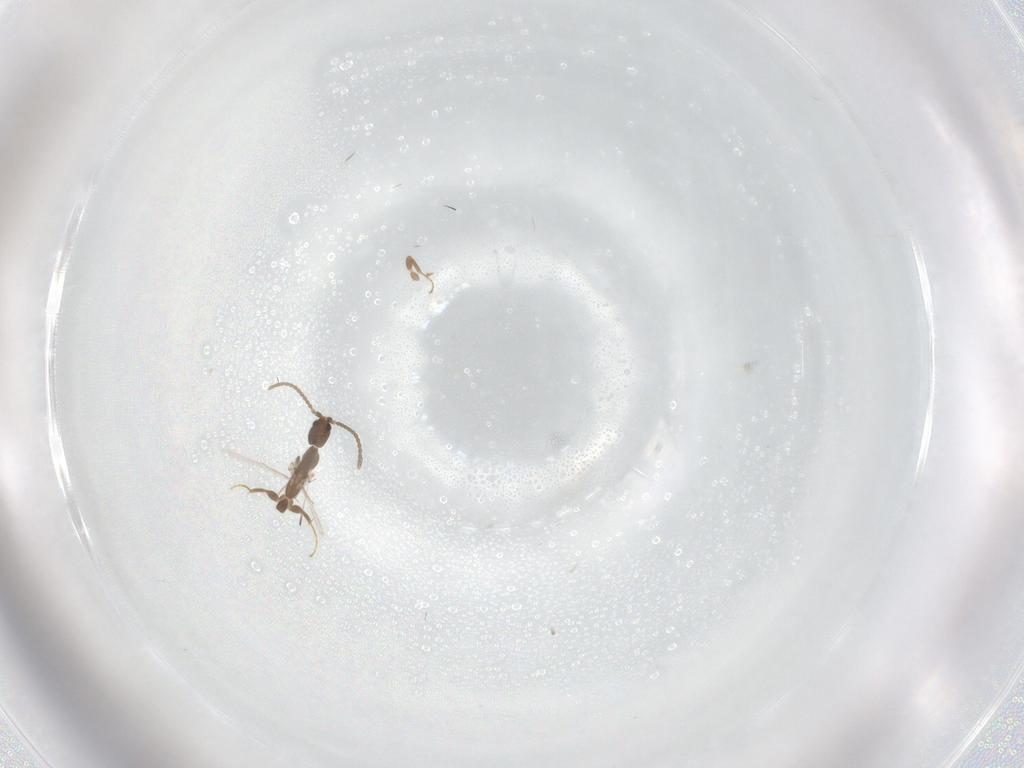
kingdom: Animalia
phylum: Arthropoda
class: Insecta
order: Hymenoptera
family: Formicidae
